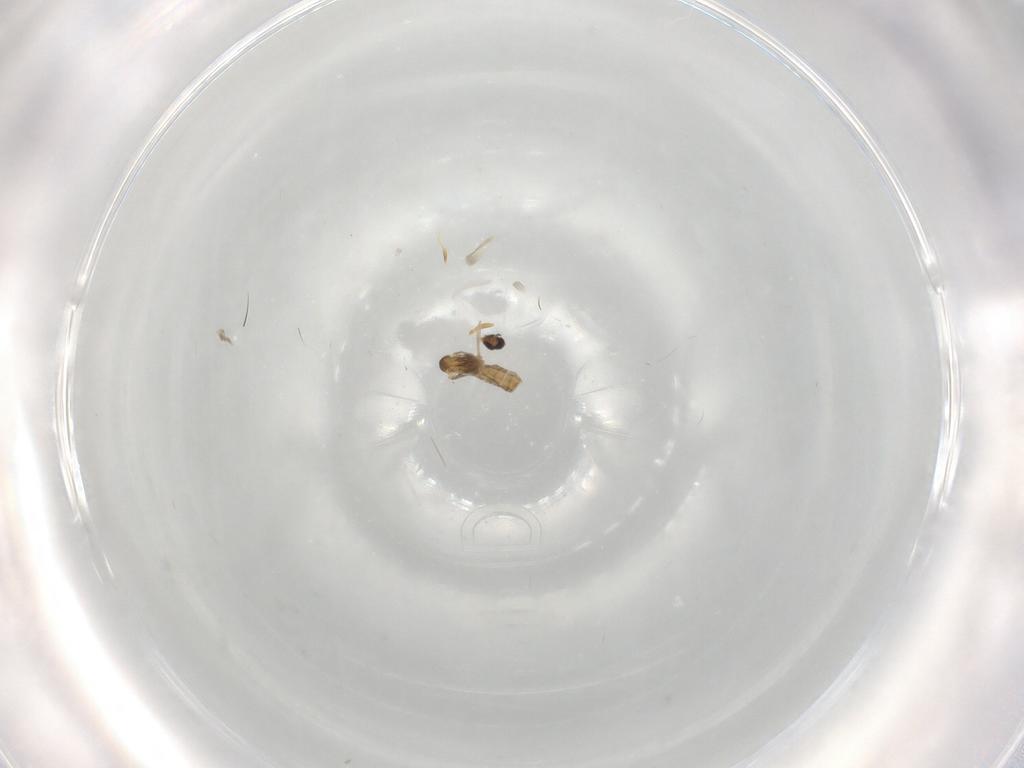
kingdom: Animalia
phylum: Arthropoda
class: Insecta
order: Diptera
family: Cecidomyiidae
